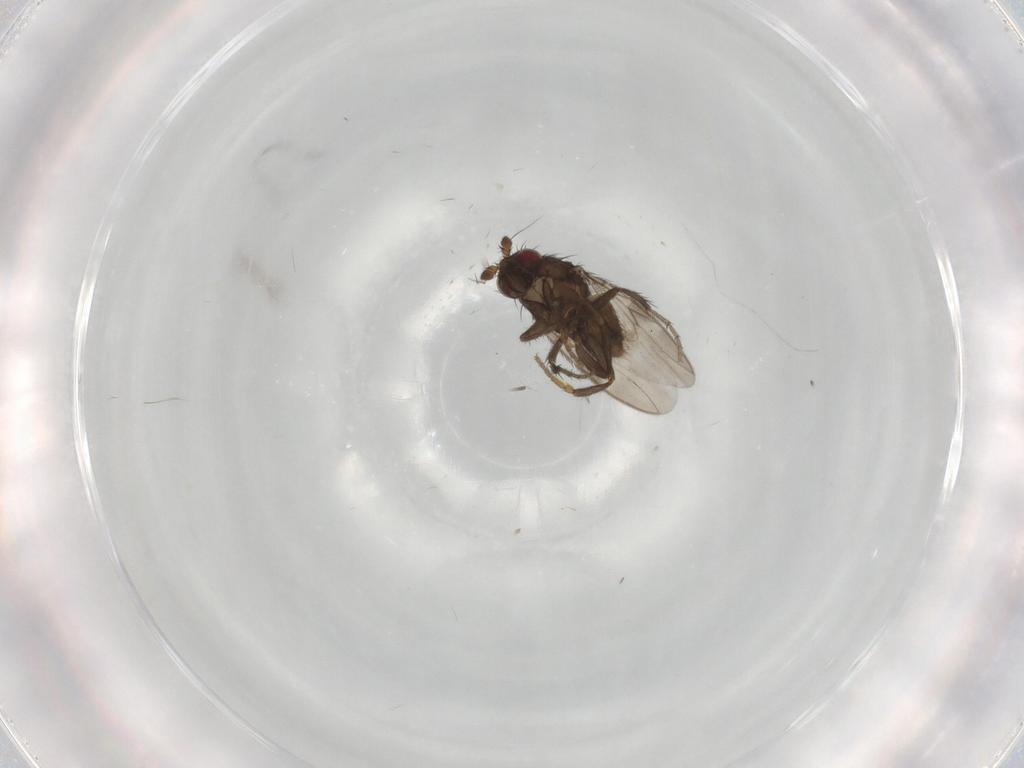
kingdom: Animalia
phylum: Arthropoda
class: Insecta
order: Diptera
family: Sphaeroceridae
